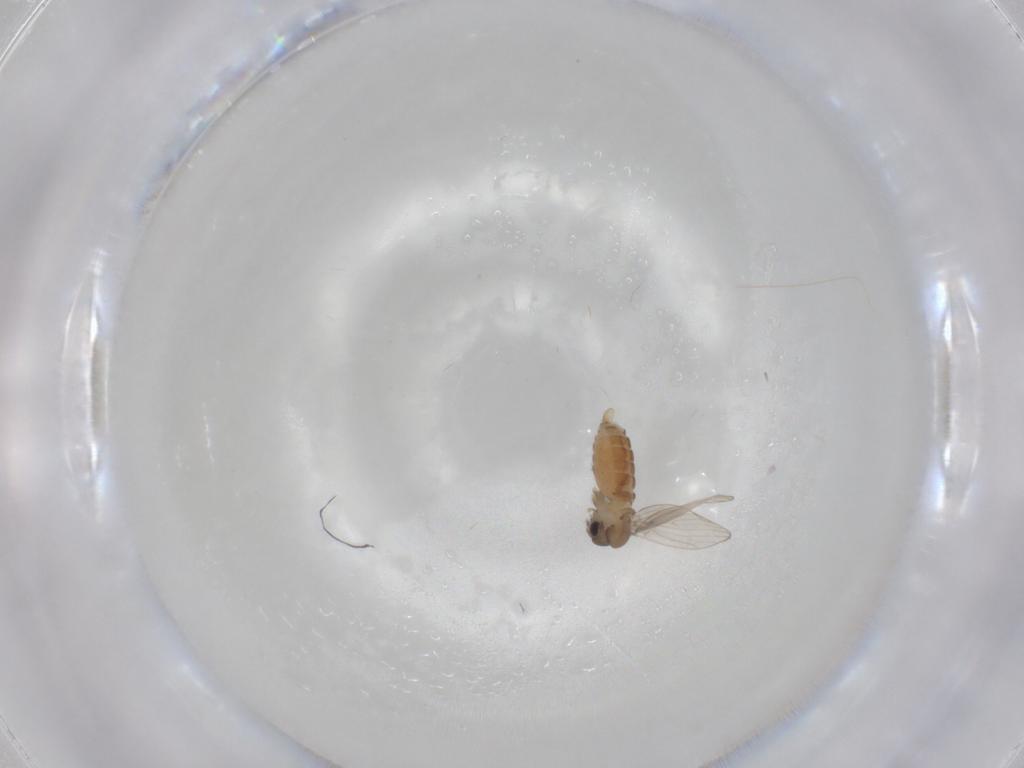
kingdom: Animalia
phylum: Arthropoda
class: Insecta
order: Diptera
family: Psychodidae
